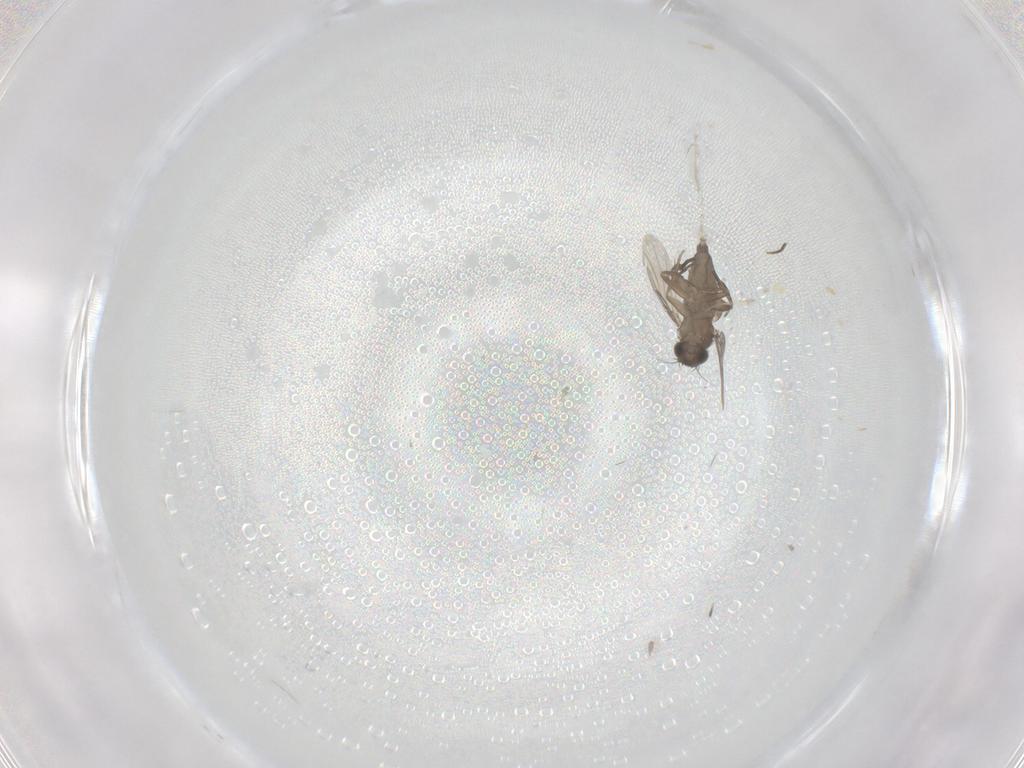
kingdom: Animalia
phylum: Arthropoda
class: Insecta
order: Diptera
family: Phoridae
